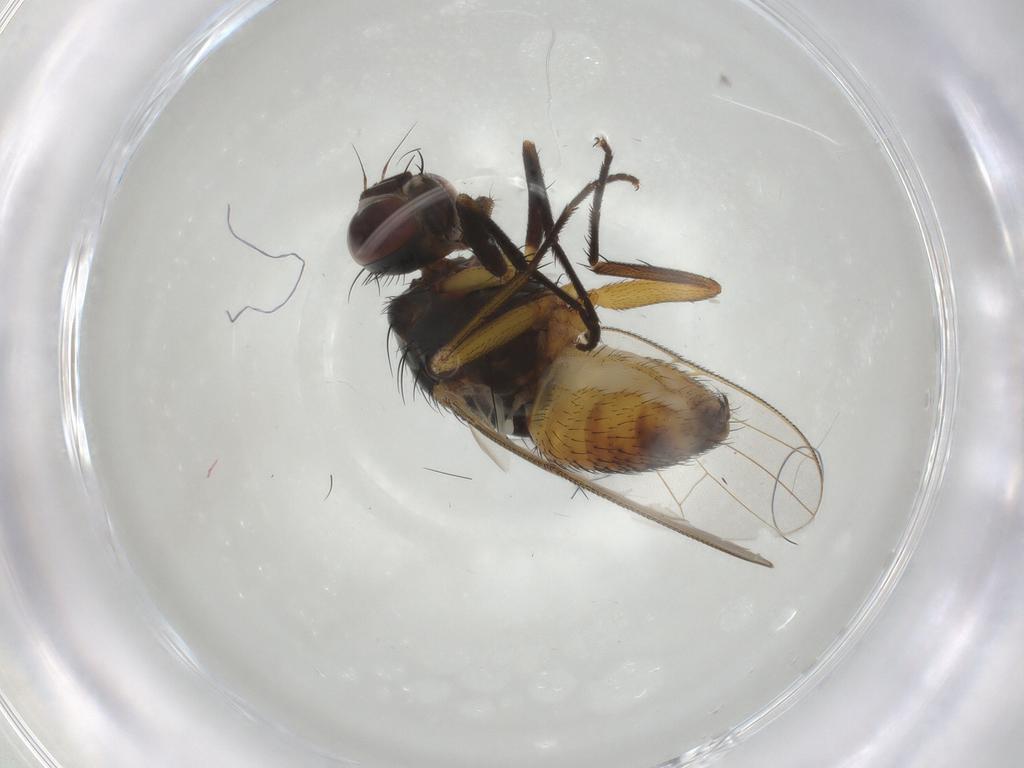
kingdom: Animalia
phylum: Arthropoda
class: Insecta
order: Diptera
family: Muscidae
